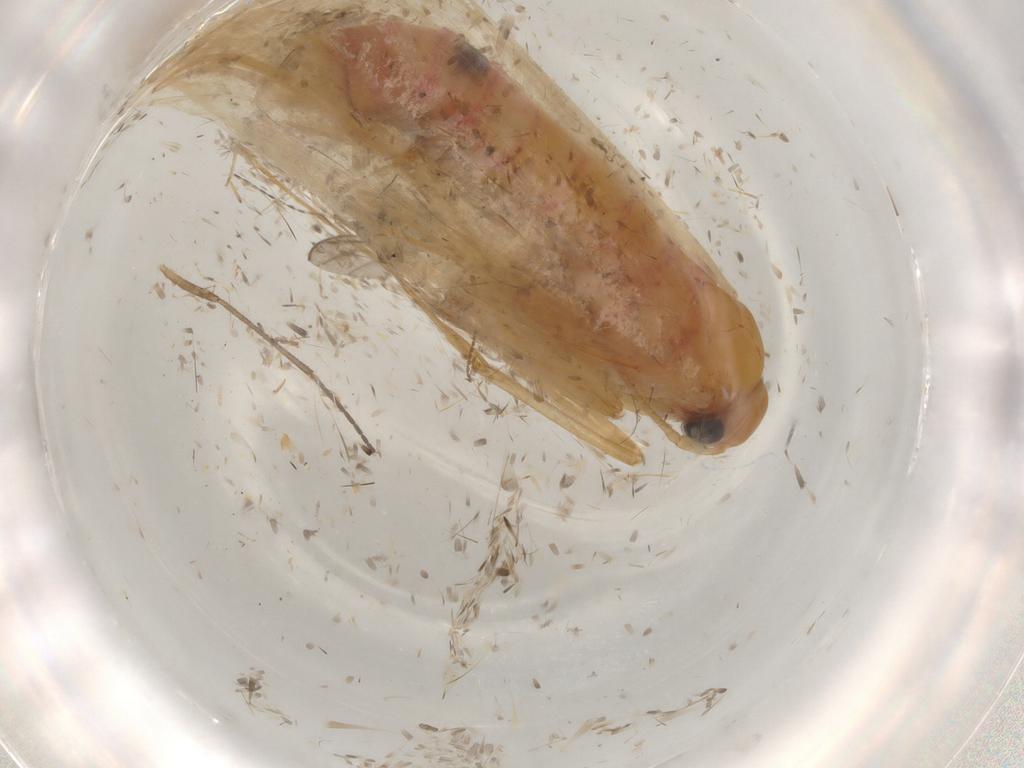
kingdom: Animalia
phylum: Arthropoda
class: Insecta
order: Lepidoptera
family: Cosmopterigidae
